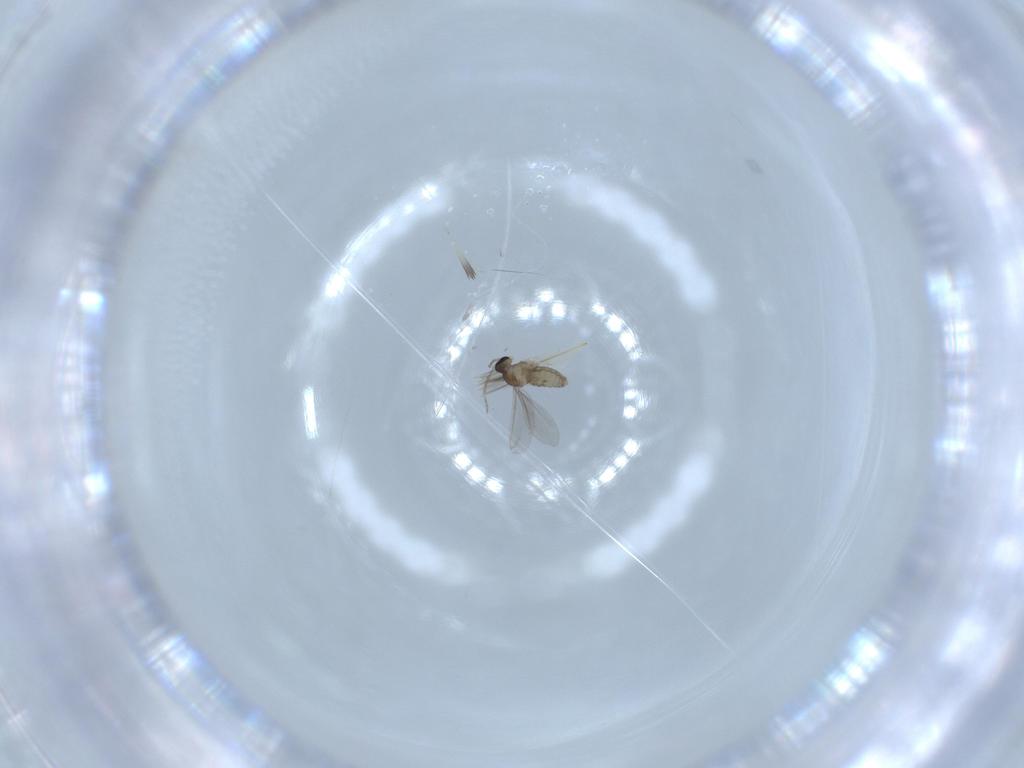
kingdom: Animalia
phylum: Arthropoda
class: Insecta
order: Diptera
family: Cecidomyiidae
